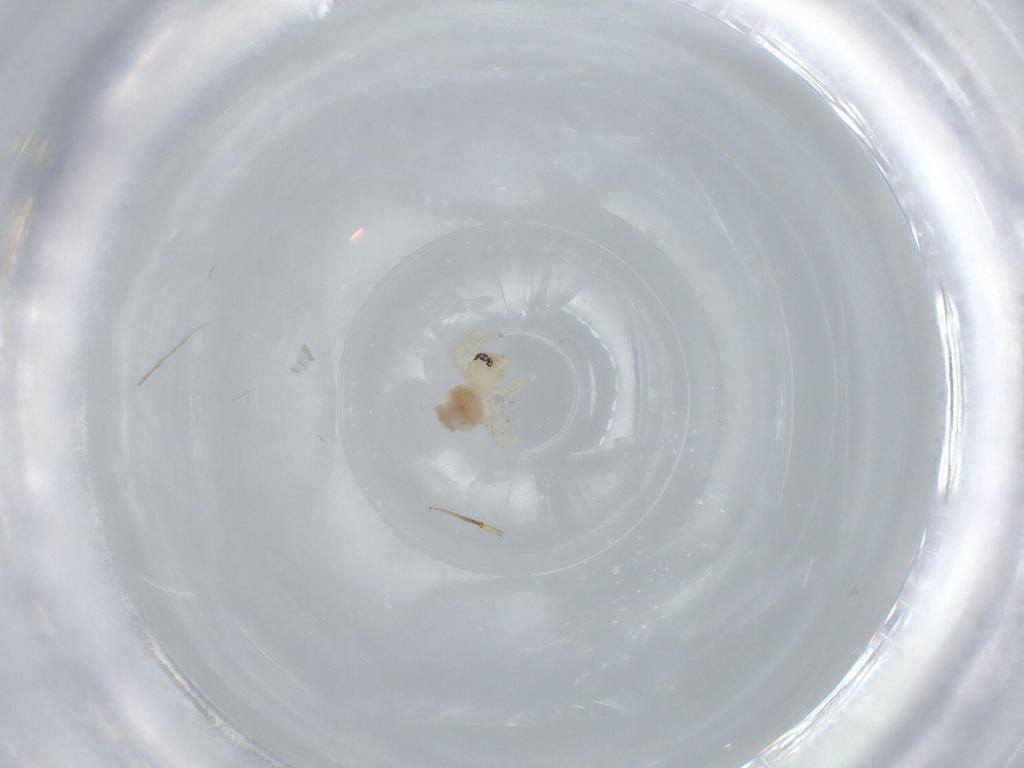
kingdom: Animalia
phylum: Arthropoda
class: Arachnida
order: Araneae
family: Oonopidae
